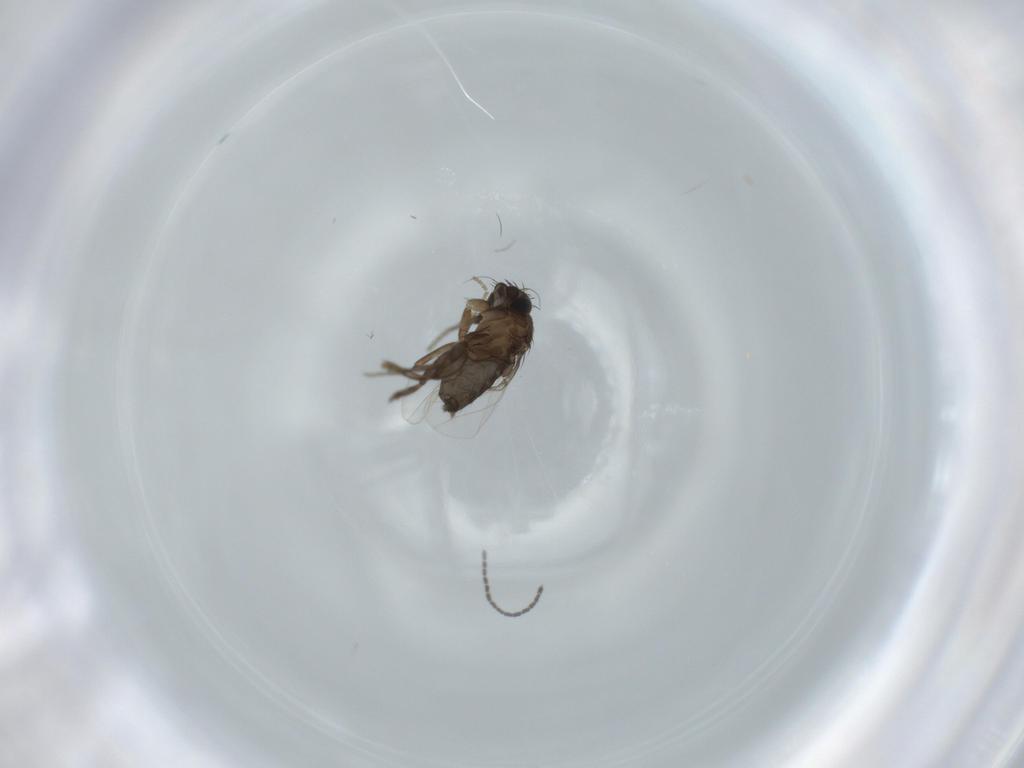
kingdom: Animalia
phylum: Arthropoda
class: Insecta
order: Diptera
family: Phoridae
